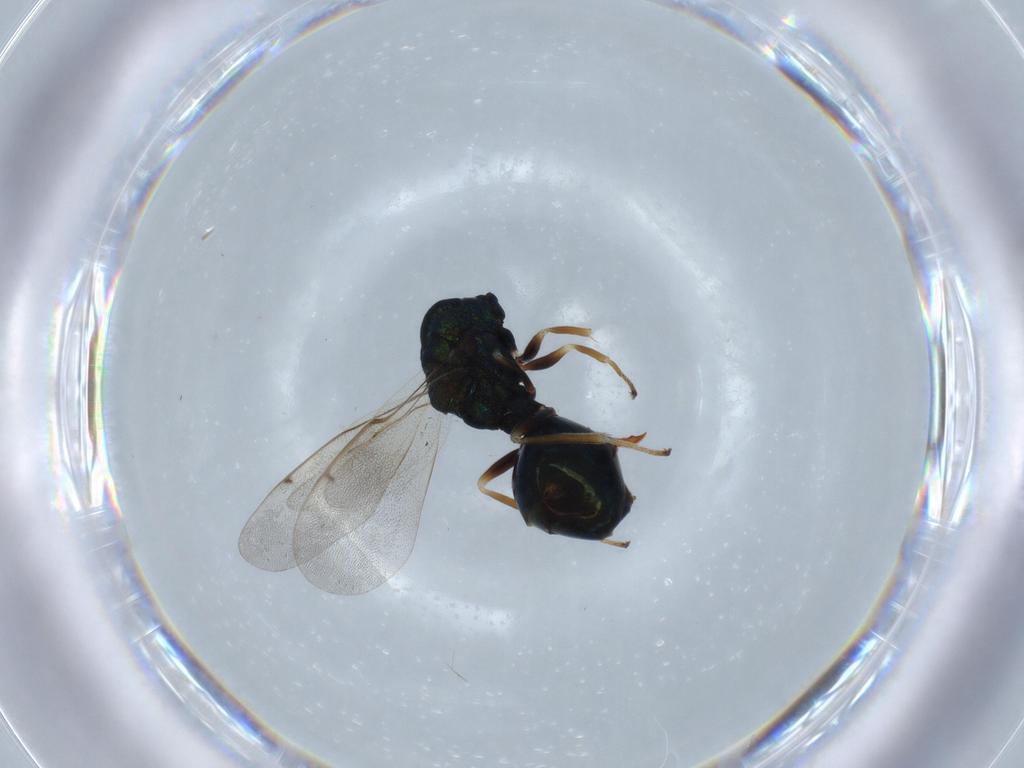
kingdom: Animalia
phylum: Arthropoda
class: Insecta
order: Hymenoptera
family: Eucharitidae
